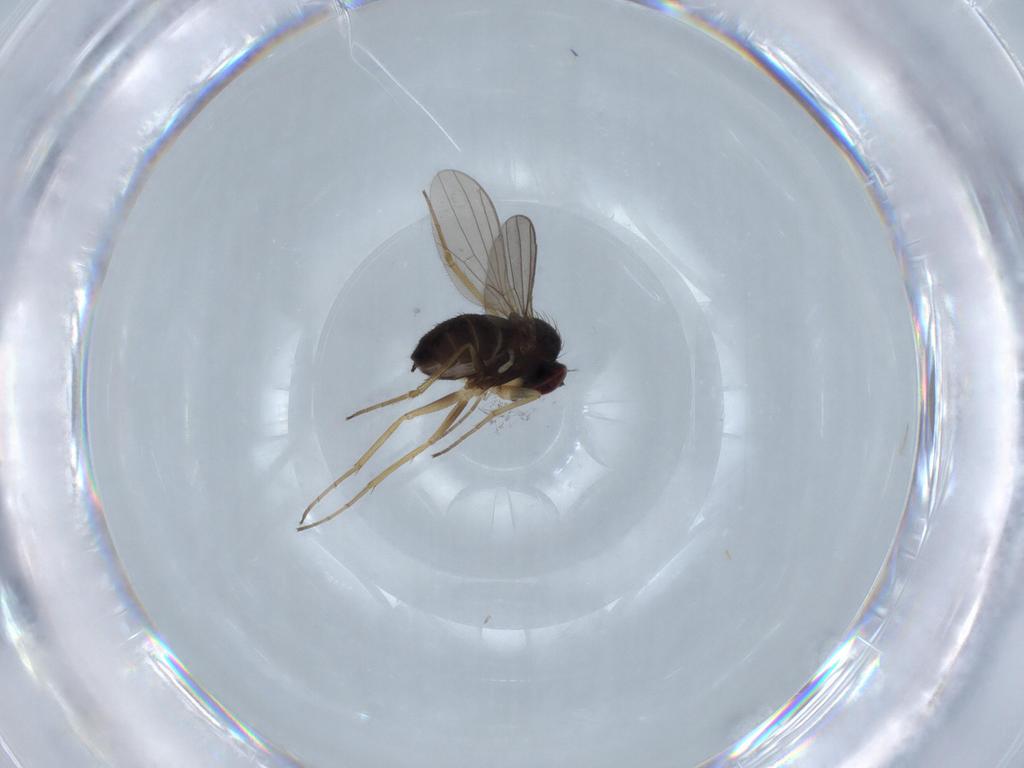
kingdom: Animalia
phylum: Arthropoda
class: Insecta
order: Diptera
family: Dolichopodidae
